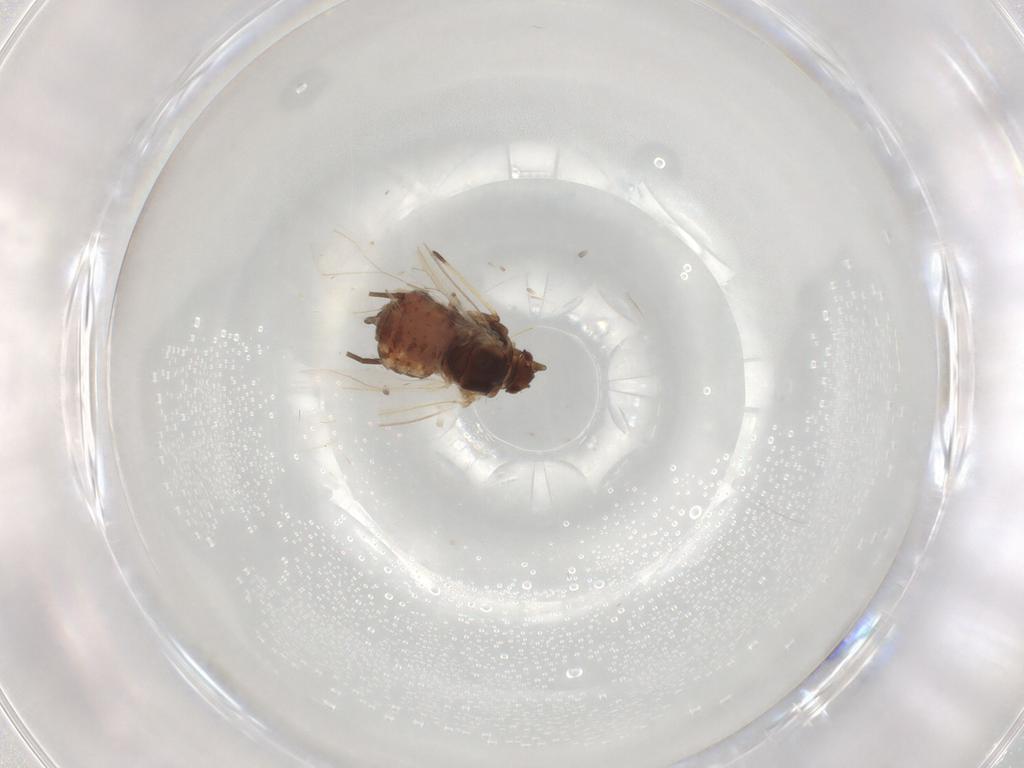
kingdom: Animalia
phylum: Arthropoda
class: Insecta
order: Hemiptera
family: Aphididae
